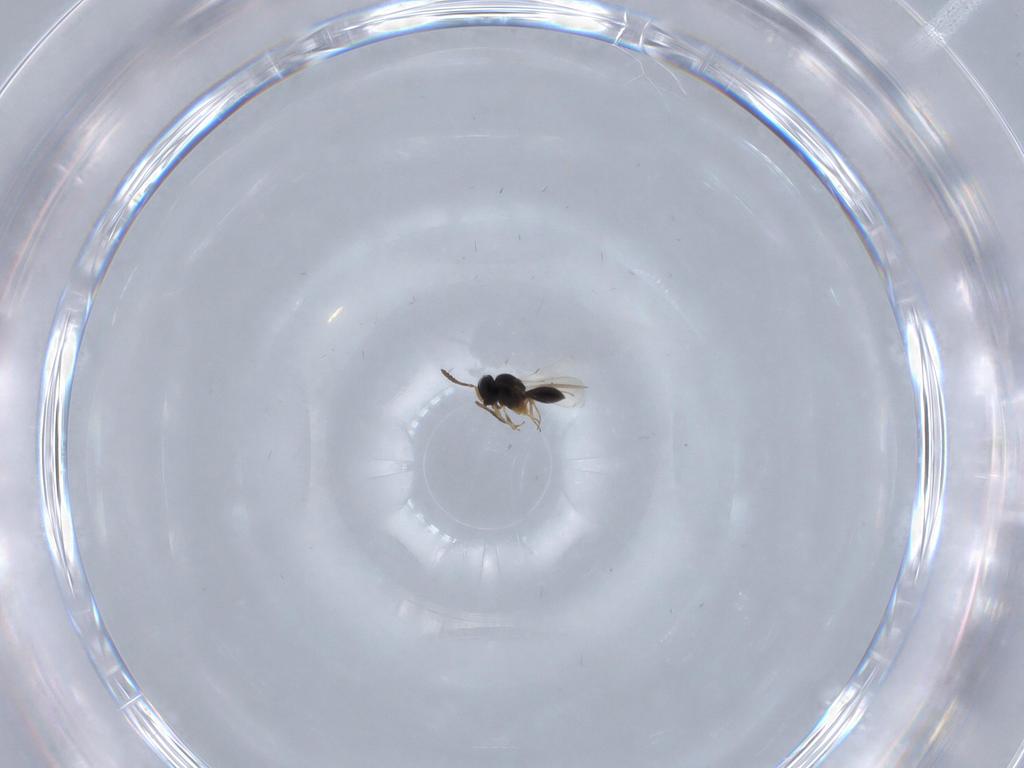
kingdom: Animalia
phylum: Arthropoda
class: Insecta
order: Hymenoptera
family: Scelionidae
